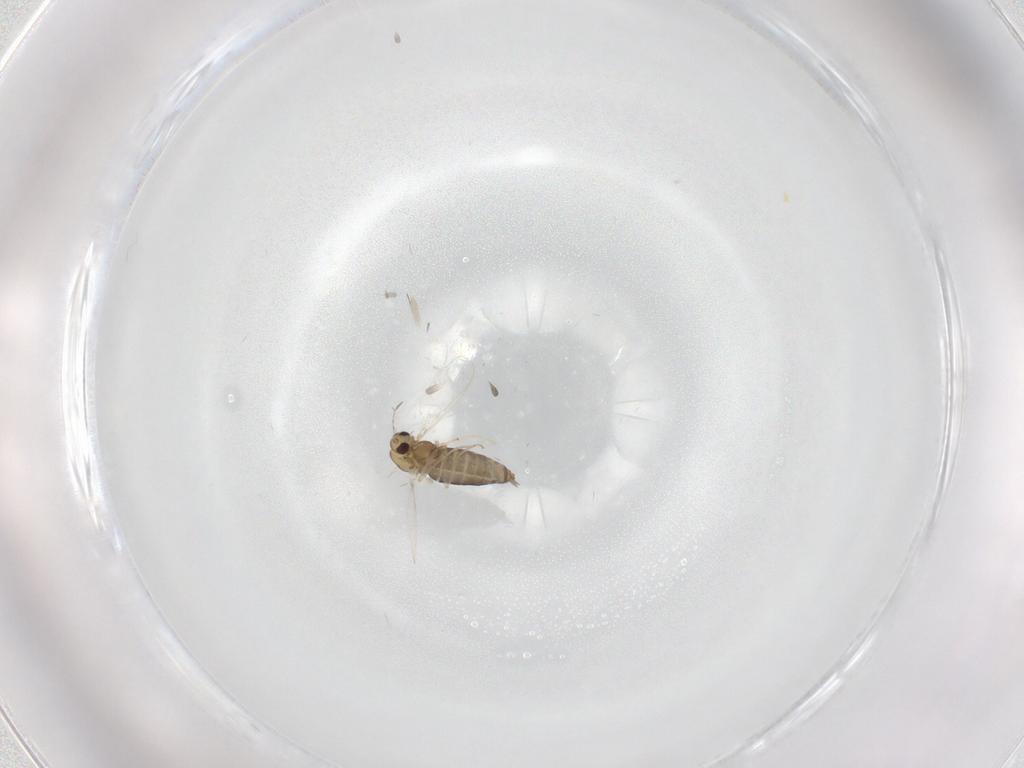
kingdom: Animalia
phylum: Arthropoda
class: Insecta
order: Diptera
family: Chironomidae
